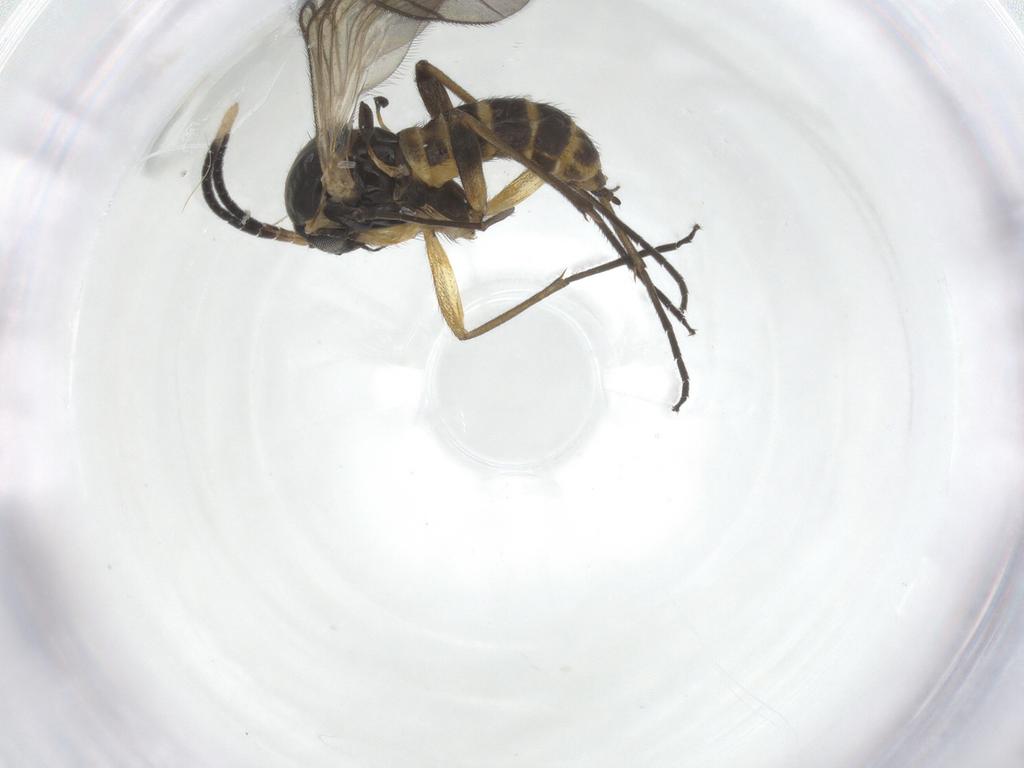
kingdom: Animalia
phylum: Arthropoda
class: Insecta
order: Diptera
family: Sciaridae
